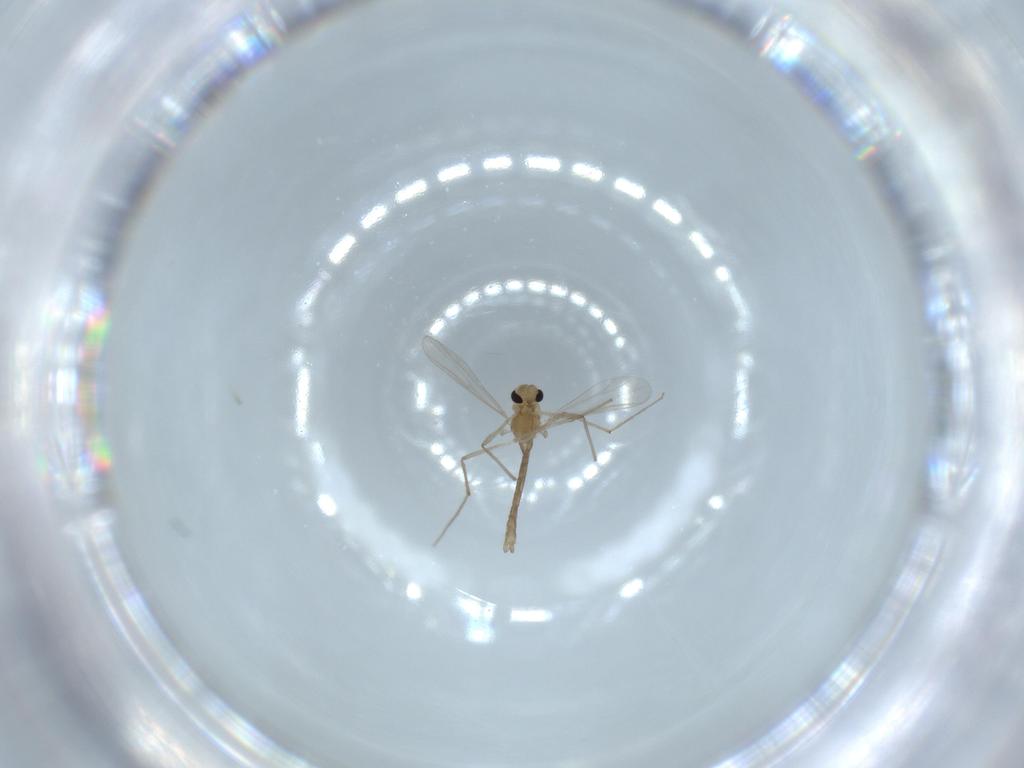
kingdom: Animalia
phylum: Arthropoda
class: Insecta
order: Diptera
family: Chironomidae
